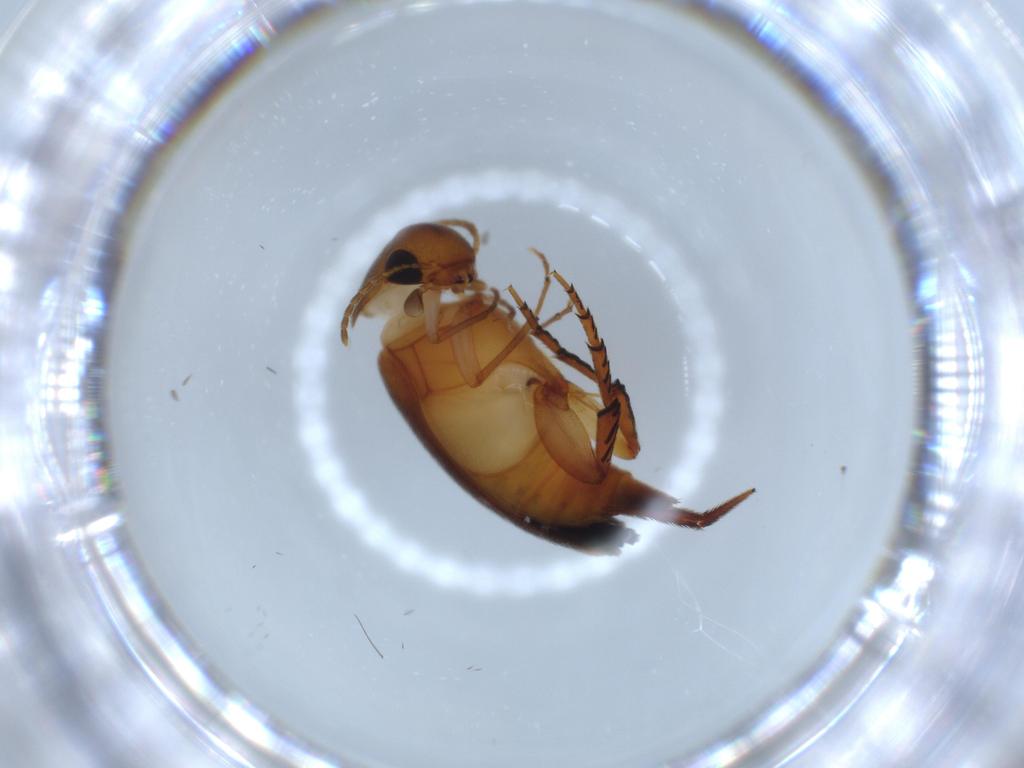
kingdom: Animalia
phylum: Arthropoda
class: Insecta
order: Coleoptera
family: Mordellidae
